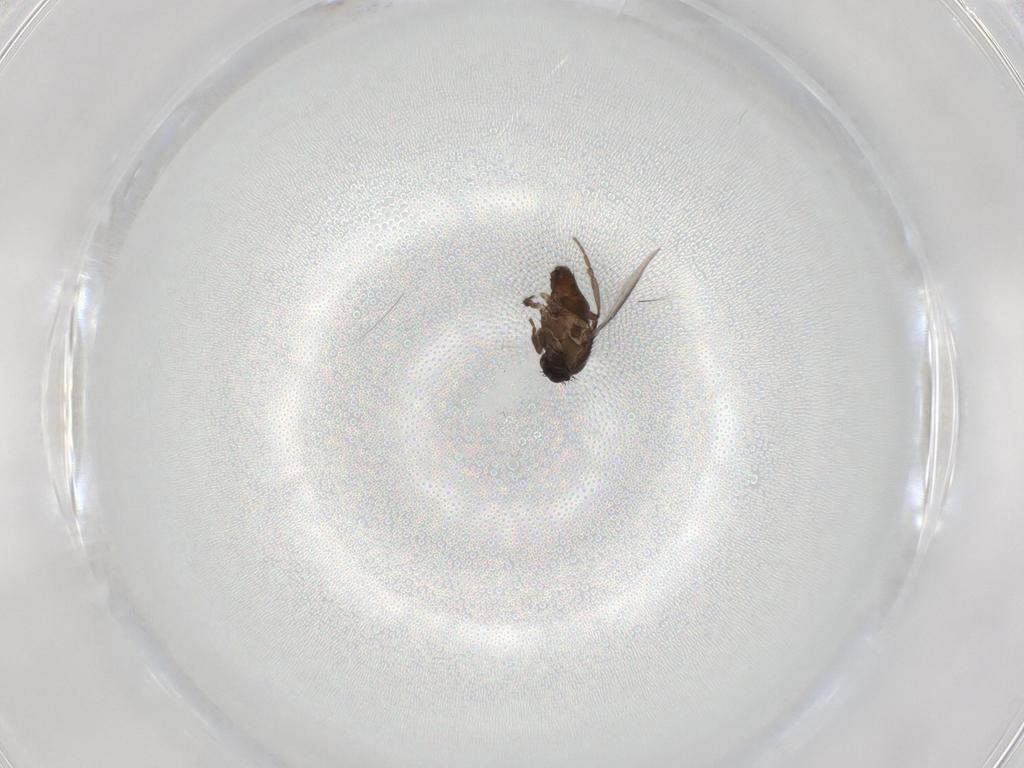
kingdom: Animalia
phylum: Arthropoda
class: Insecta
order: Diptera
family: Sphaeroceridae
